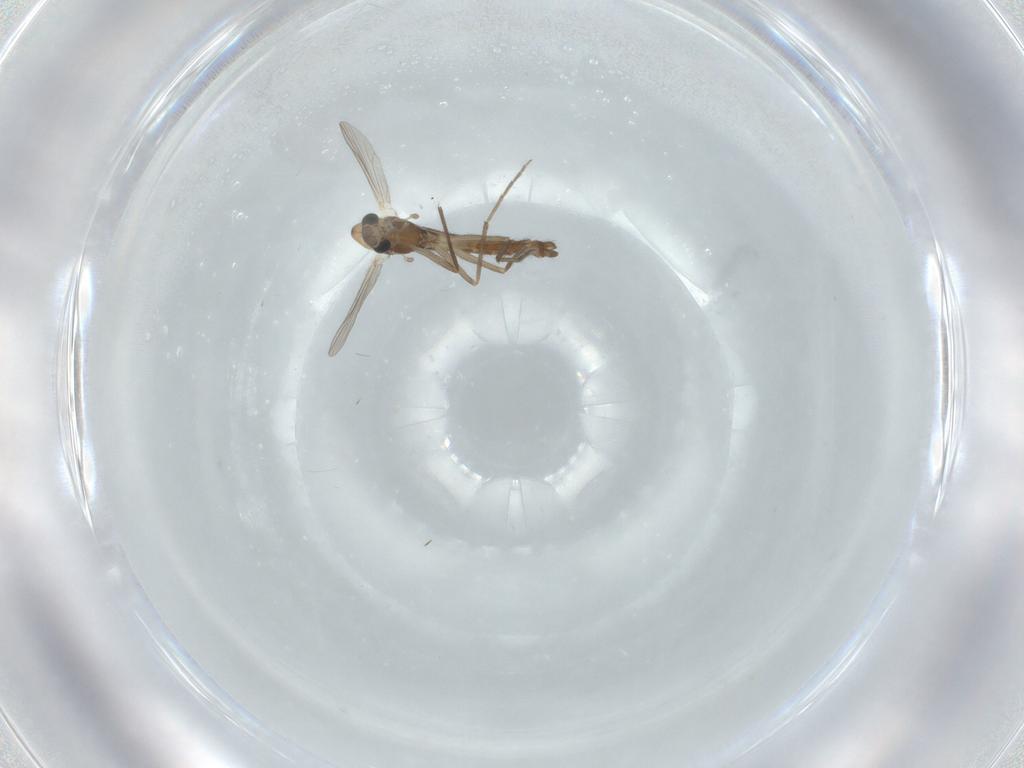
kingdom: Animalia
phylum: Arthropoda
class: Insecta
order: Diptera
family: Chironomidae
